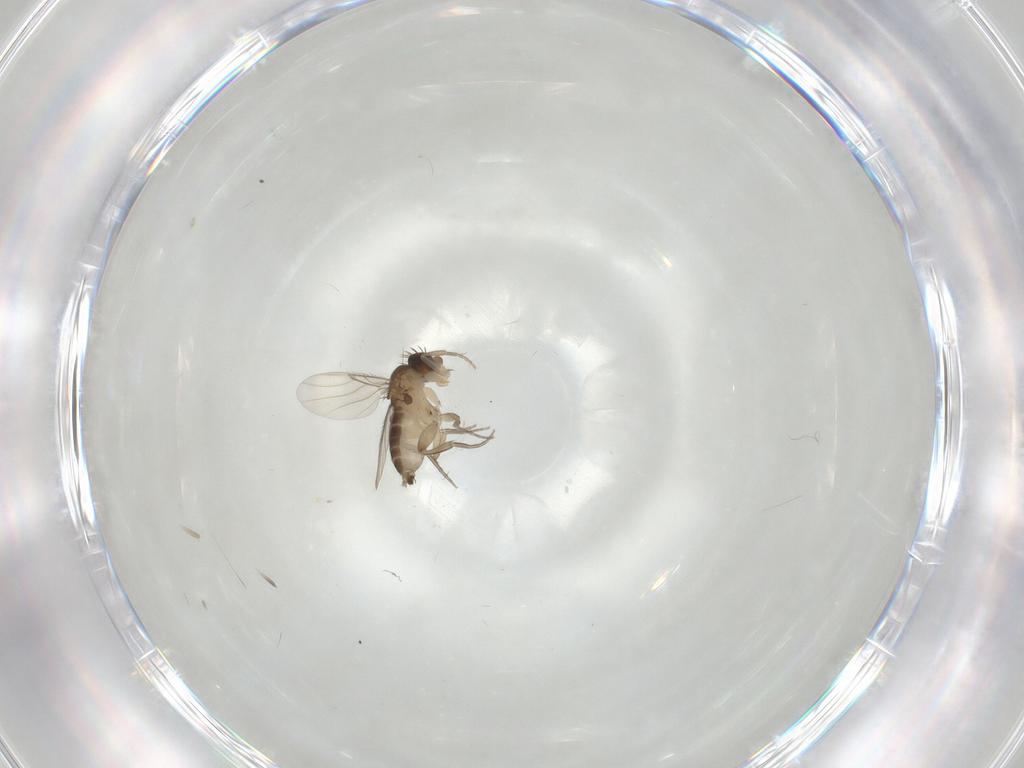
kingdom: Animalia
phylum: Arthropoda
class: Insecta
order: Diptera
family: Phoridae
